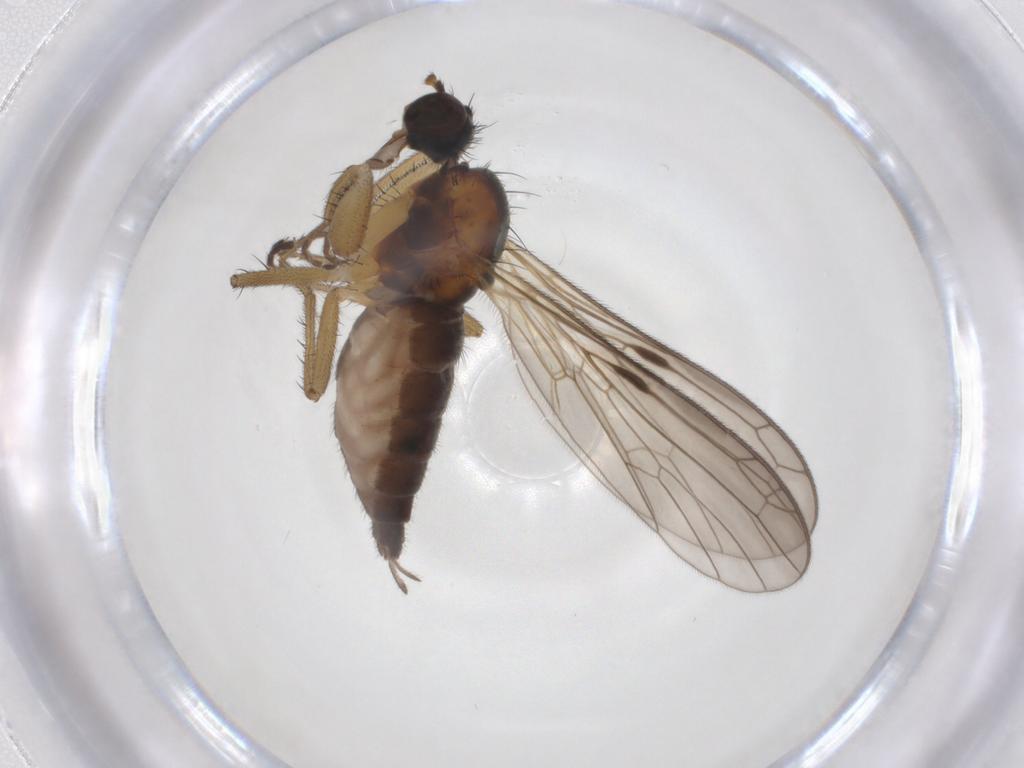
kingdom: Animalia
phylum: Arthropoda
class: Insecta
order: Diptera
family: Empididae
